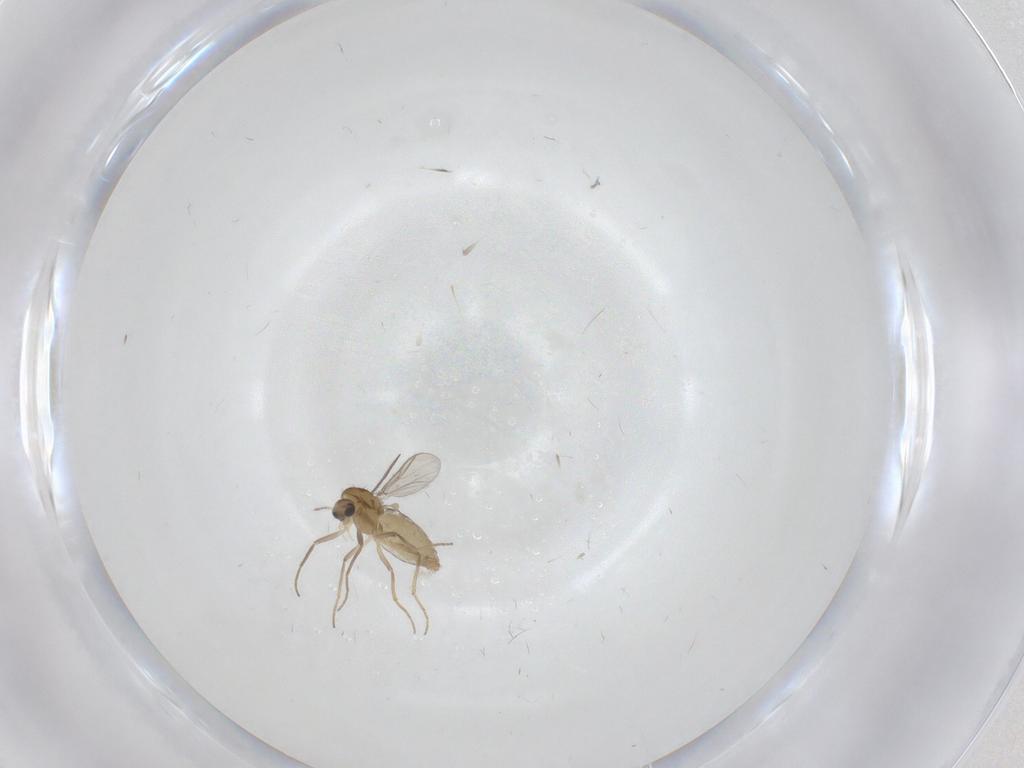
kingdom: Animalia
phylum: Arthropoda
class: Insecta
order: Diptera
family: Chironomidae
